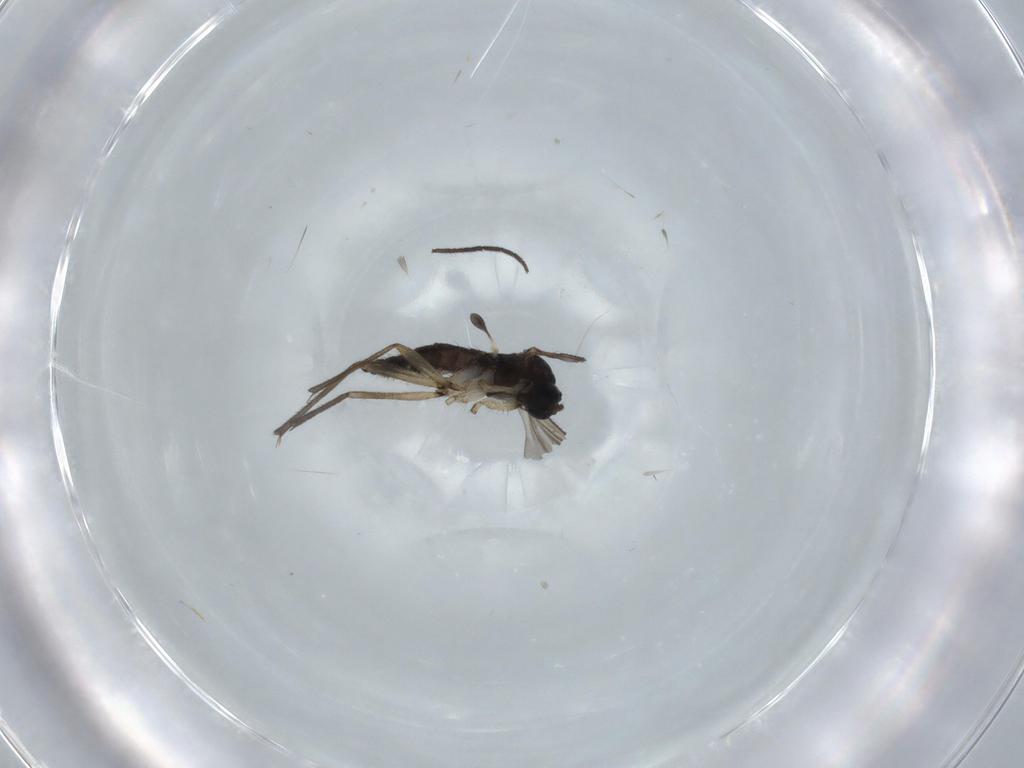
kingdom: Animalia
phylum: Arthropoda
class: Insecta
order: Diptera
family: Sciaridae
